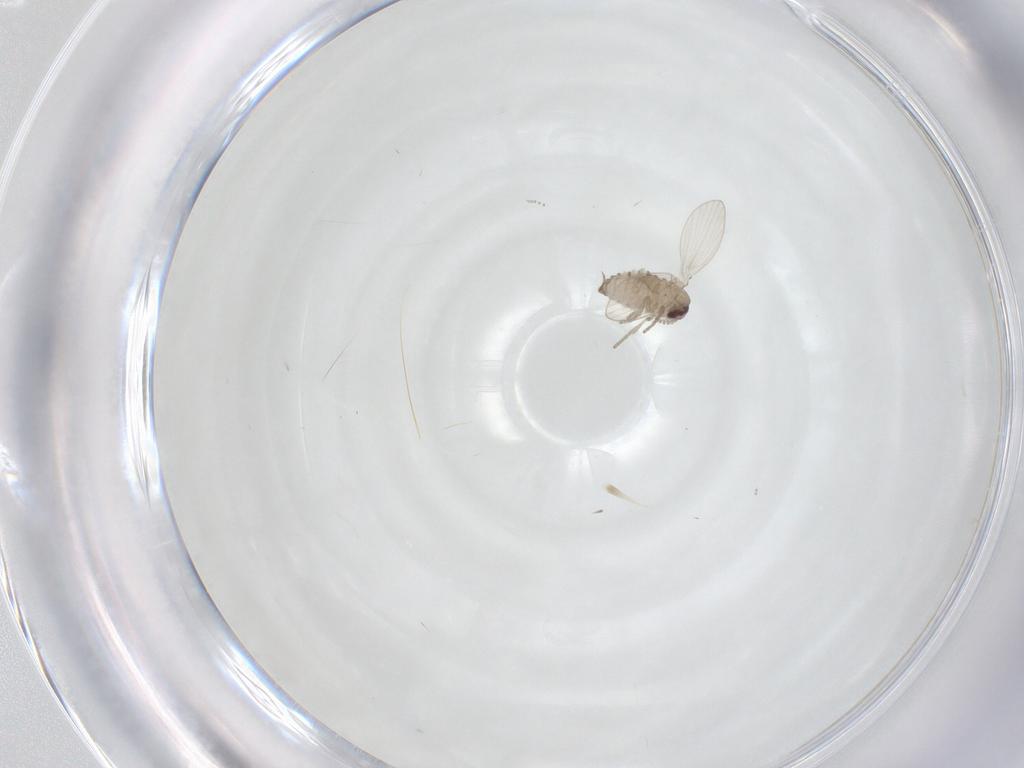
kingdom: Animalia
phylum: Arthropoda
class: Insecta
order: Diptera
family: Psychodidae
